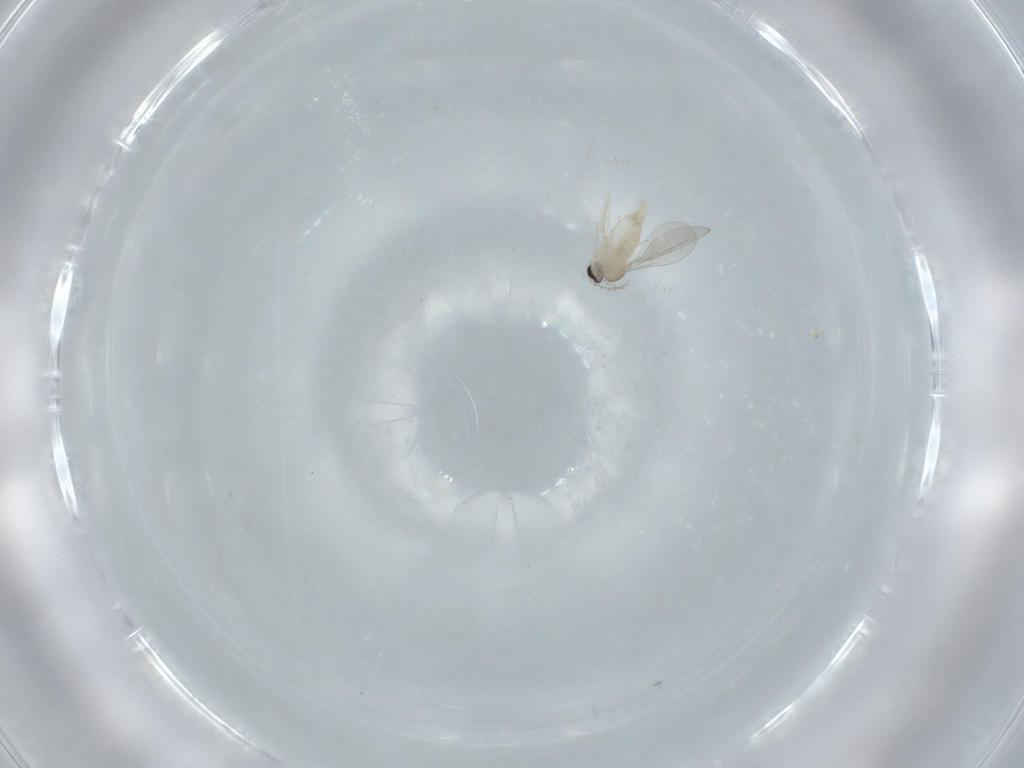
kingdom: Animalia
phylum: Arthropoda
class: Insecta
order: Diptera
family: Cecidomyiidae
